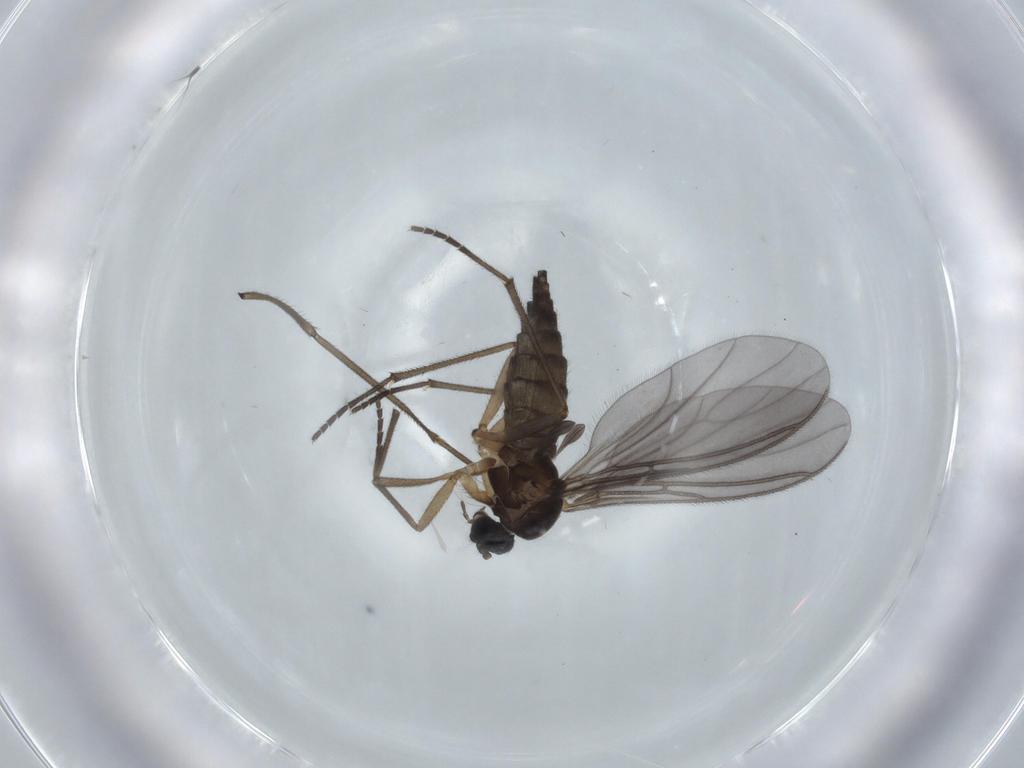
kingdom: Animalia
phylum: Arthropoda
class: Insecta
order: Diptera
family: Sciaridae
